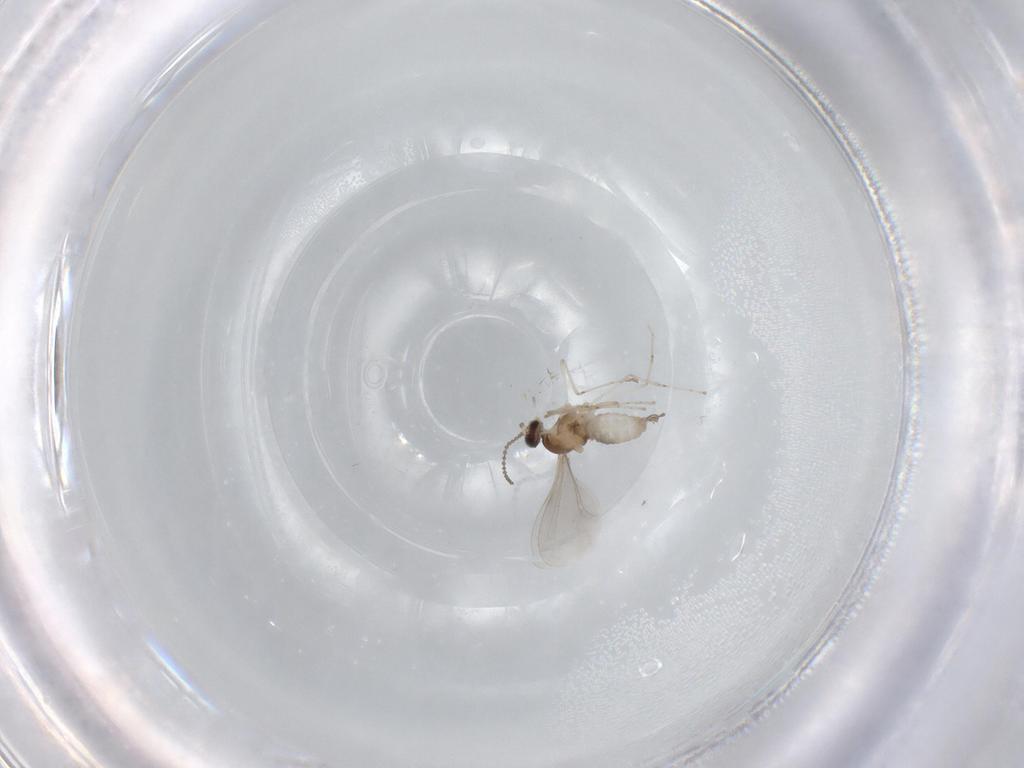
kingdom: Animalia
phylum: Arthropoda
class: Insecta
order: Diptera
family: Cecidomyiidae
